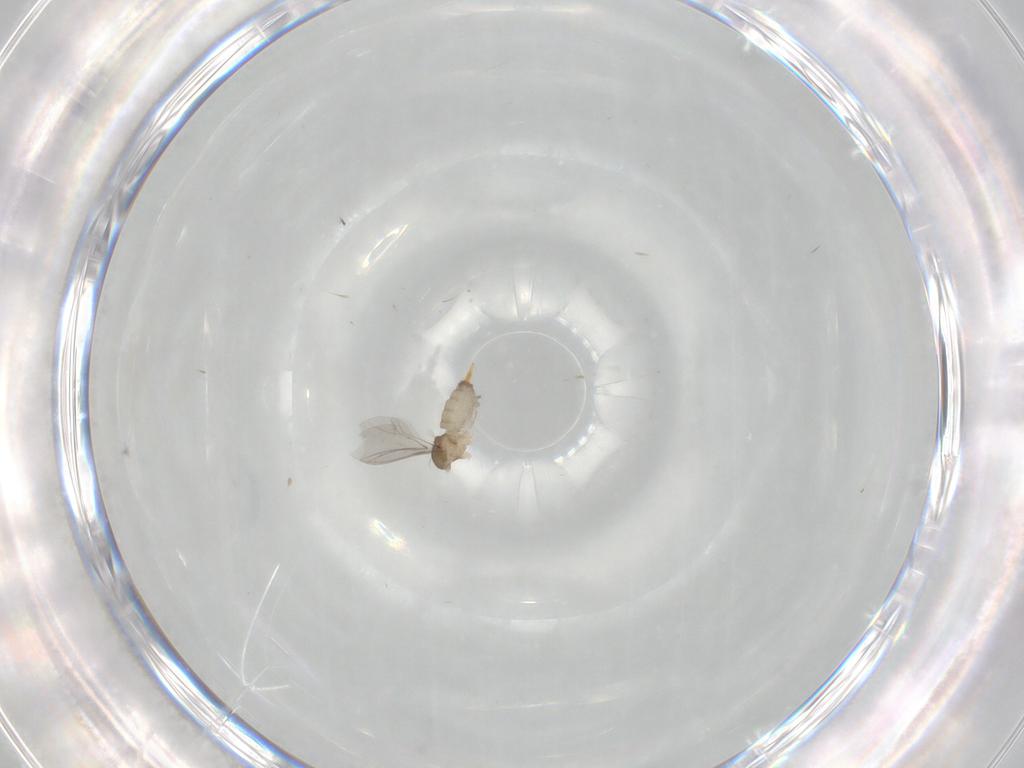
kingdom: Animalia
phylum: Arthropoda
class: Insecta
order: Diptera
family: Cecidomyiidae
